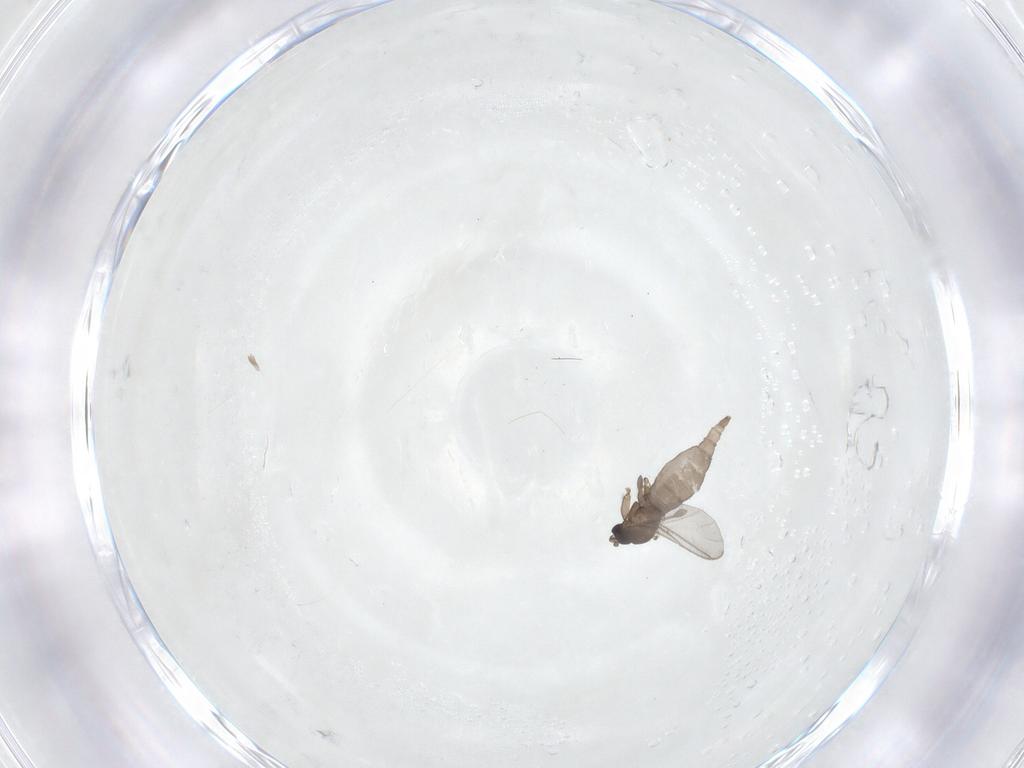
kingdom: Animalia
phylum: Arthropoda
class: Insecta
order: Diptera
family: Sciaridae
